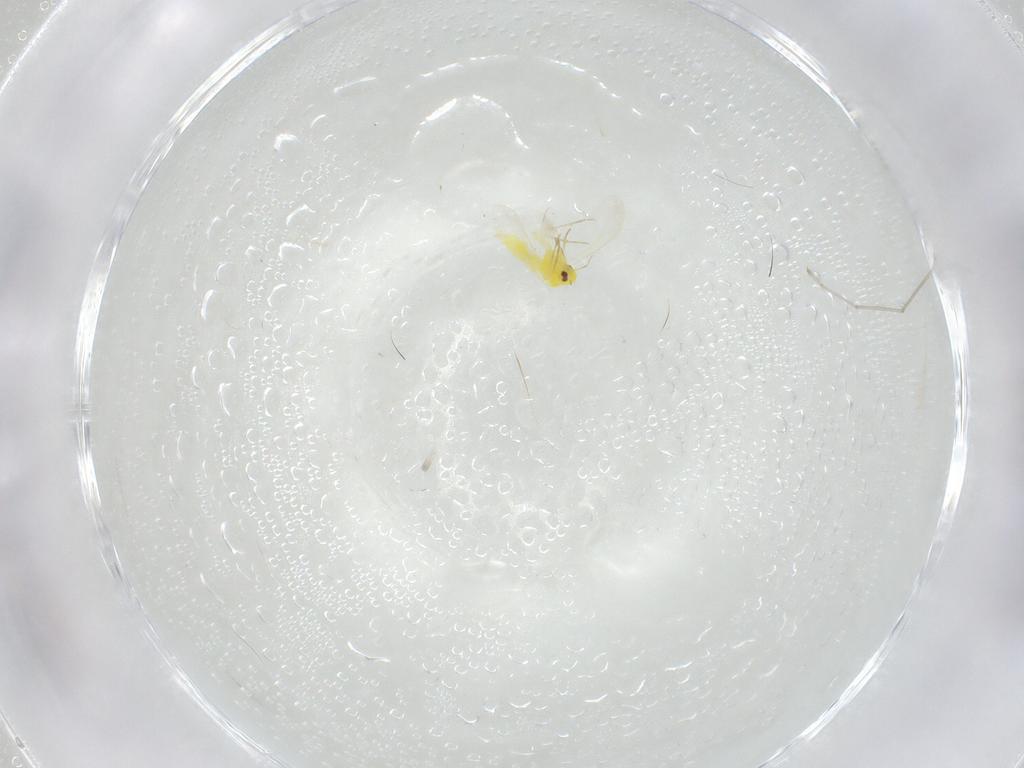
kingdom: Animalia
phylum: Arthropoda
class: Insecta
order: Hemiptera
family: Aleyrodidae
